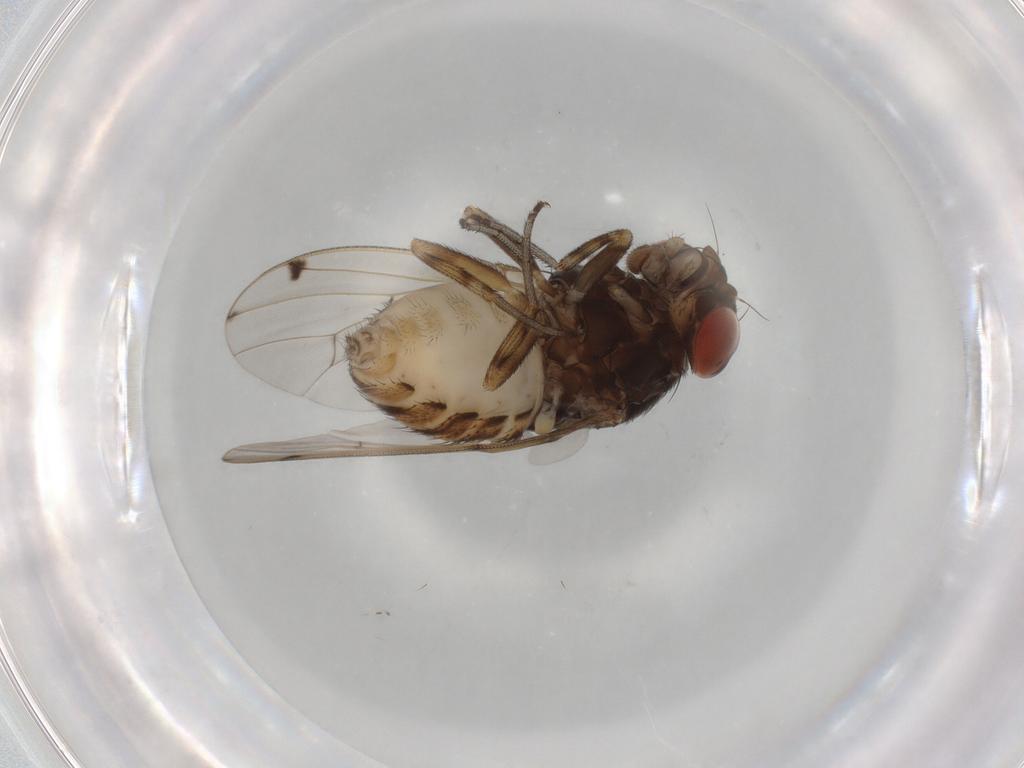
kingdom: Animalia
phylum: Arthropoda
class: Insecta
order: Diptera
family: Drosophilidae
